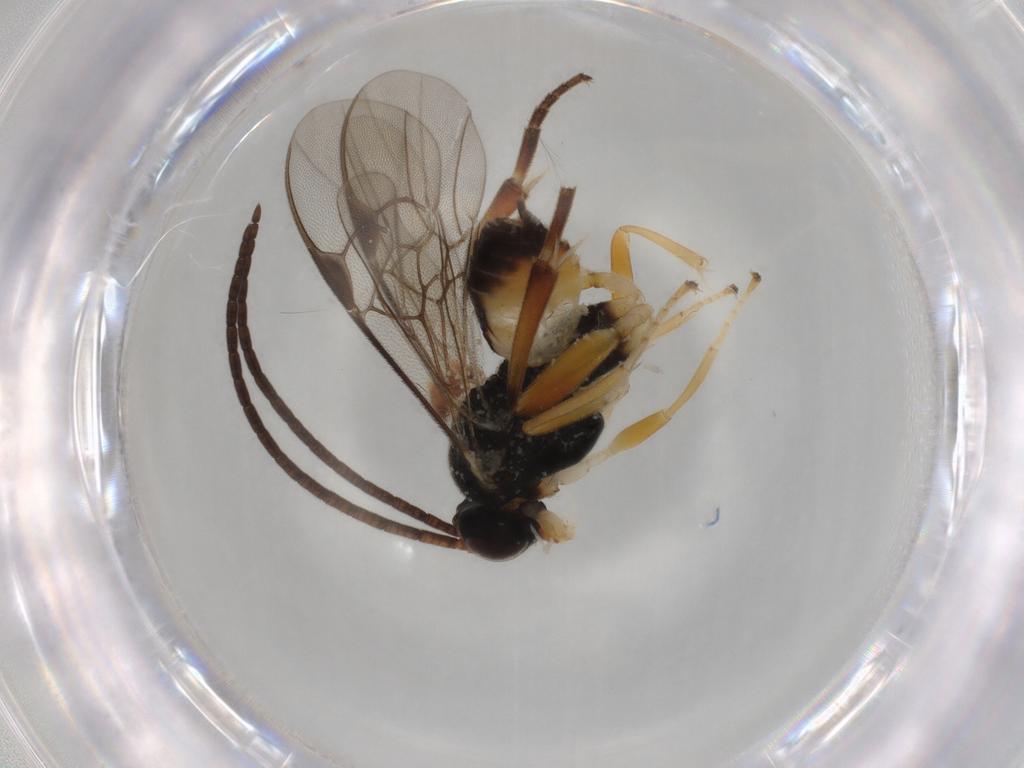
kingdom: Animalia
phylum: Arthropoda
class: Insecta
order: Hymenoptera
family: Braconidae
